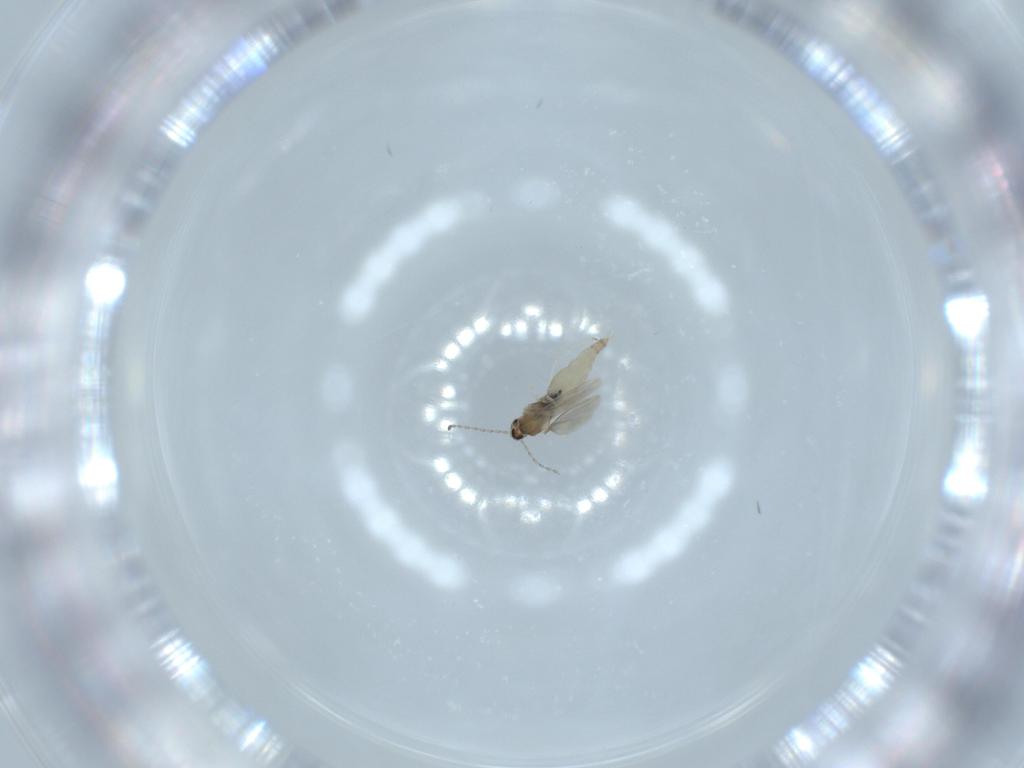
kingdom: Animalia
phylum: Arthropoda
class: Insecta
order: Diptera
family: Cecidomyiidae
